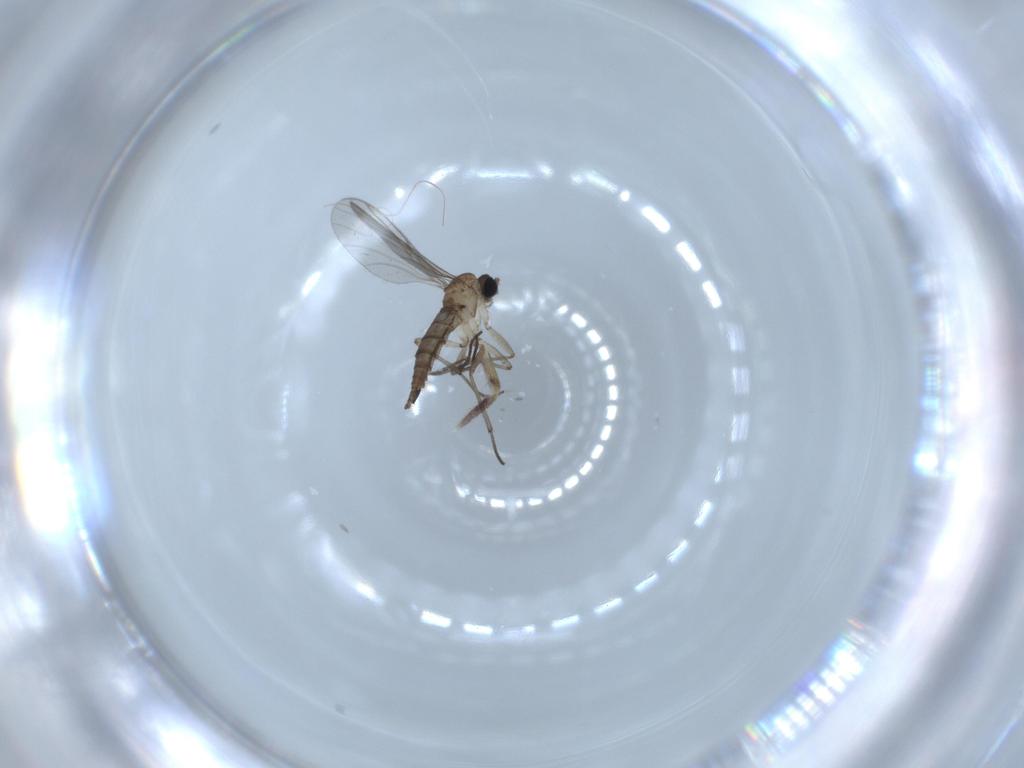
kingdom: Animalia
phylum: Arthropoda
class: Insecta
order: Diptera
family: Sciaridae
